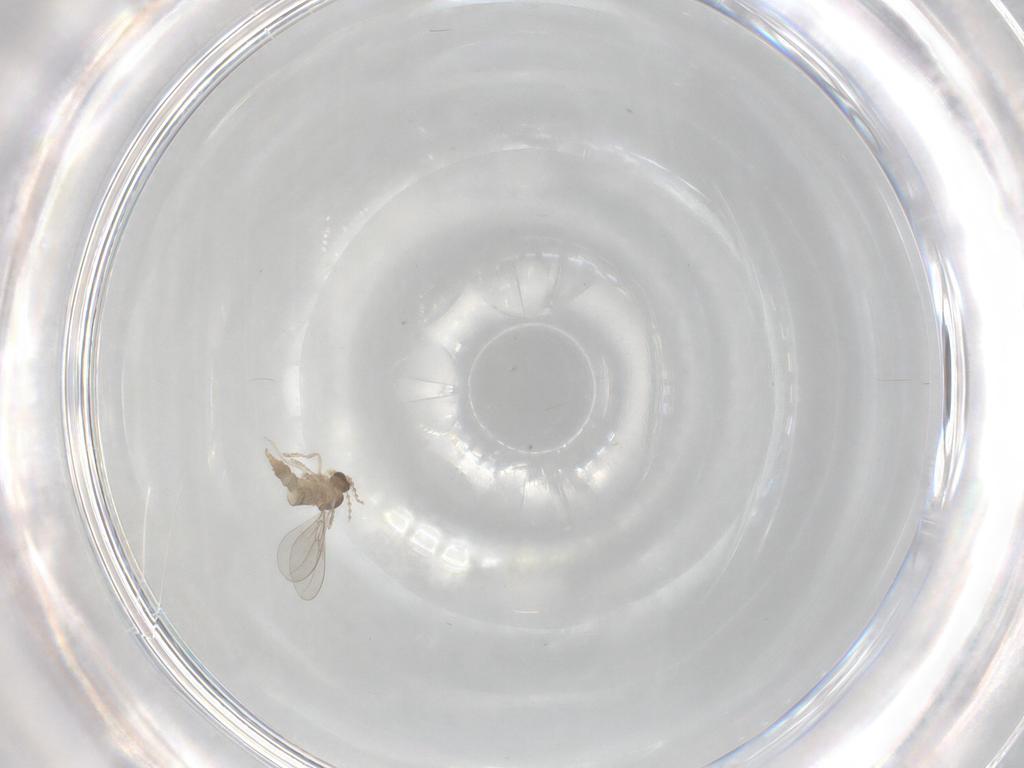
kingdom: Animalia
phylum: Arthropoda
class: Insecta
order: Diptera
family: Cecidomyiidae
